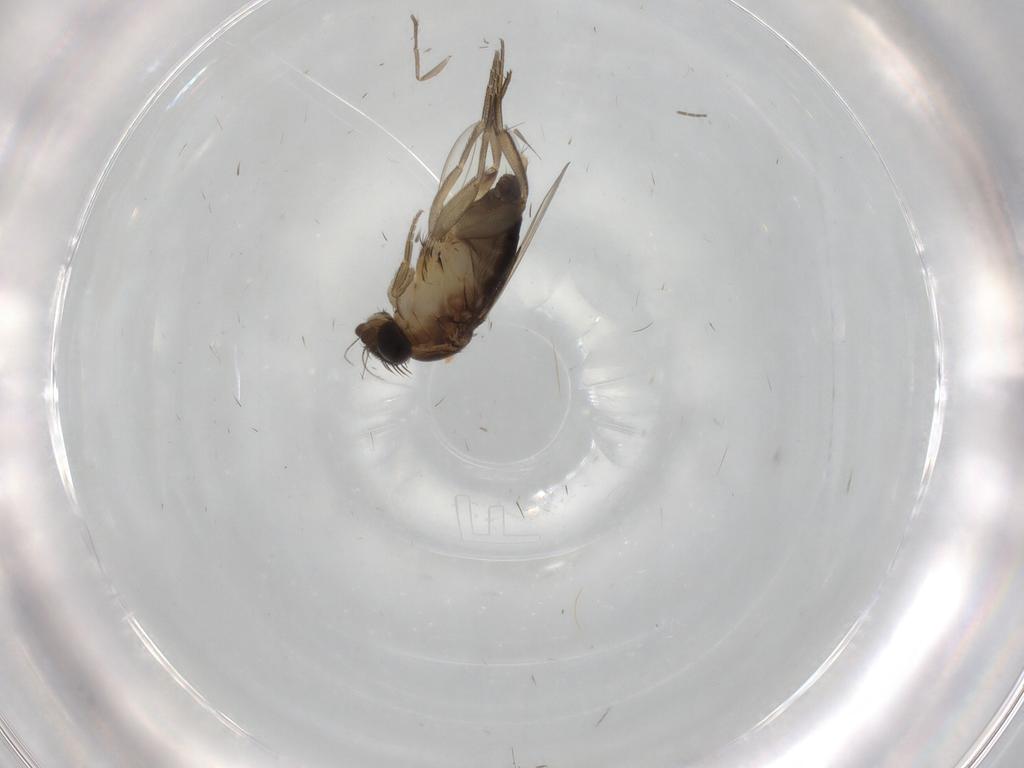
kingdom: Animalia
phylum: Arthropoda
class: Insecta
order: Diptera
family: Phoridae
